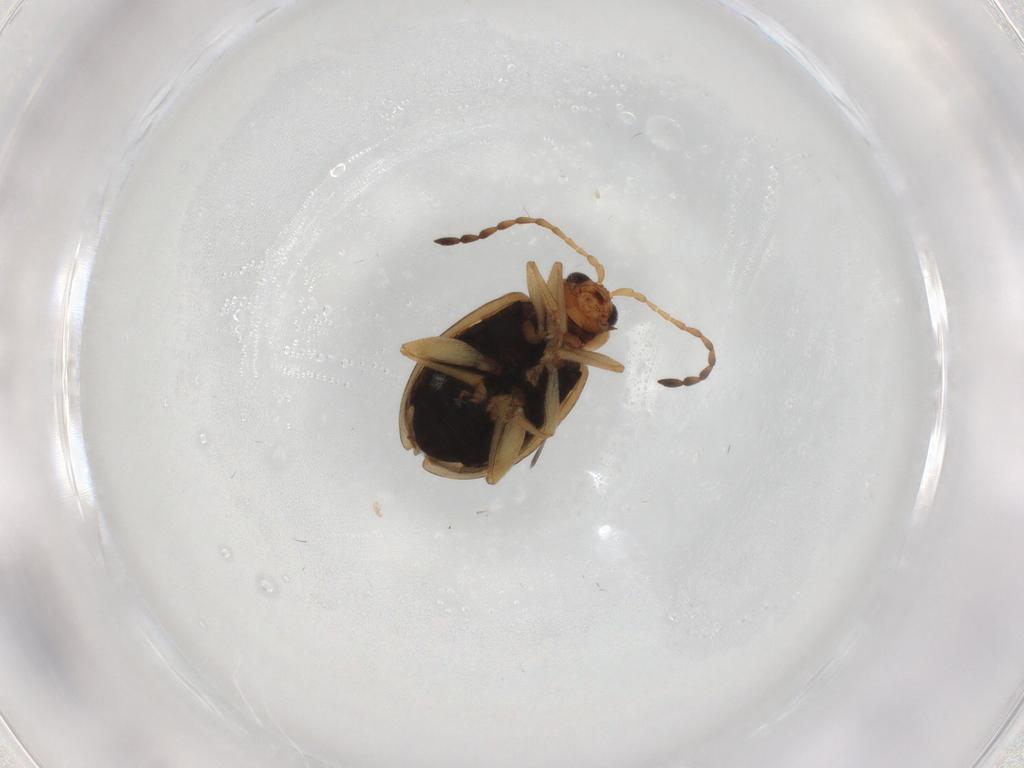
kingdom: Animalia
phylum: Arthropoda
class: Insecta
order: Coleoptera
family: Chrysomelidae
